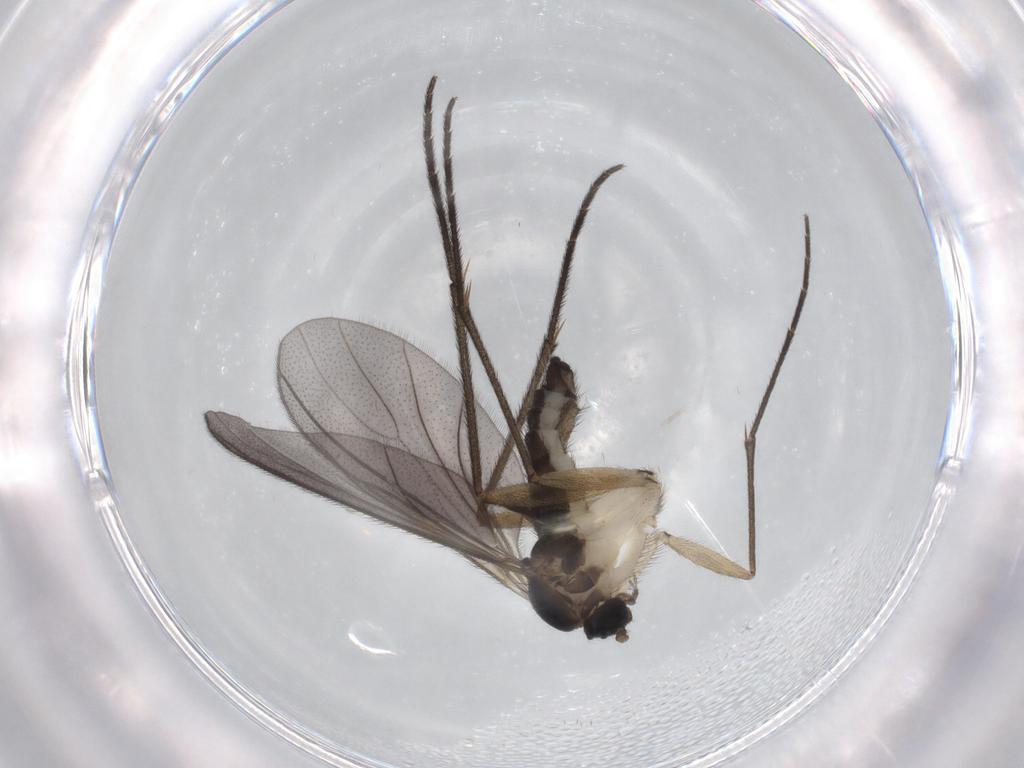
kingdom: Animalia
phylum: Arthropoda
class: Insecta
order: Diptera
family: Sciaridae
